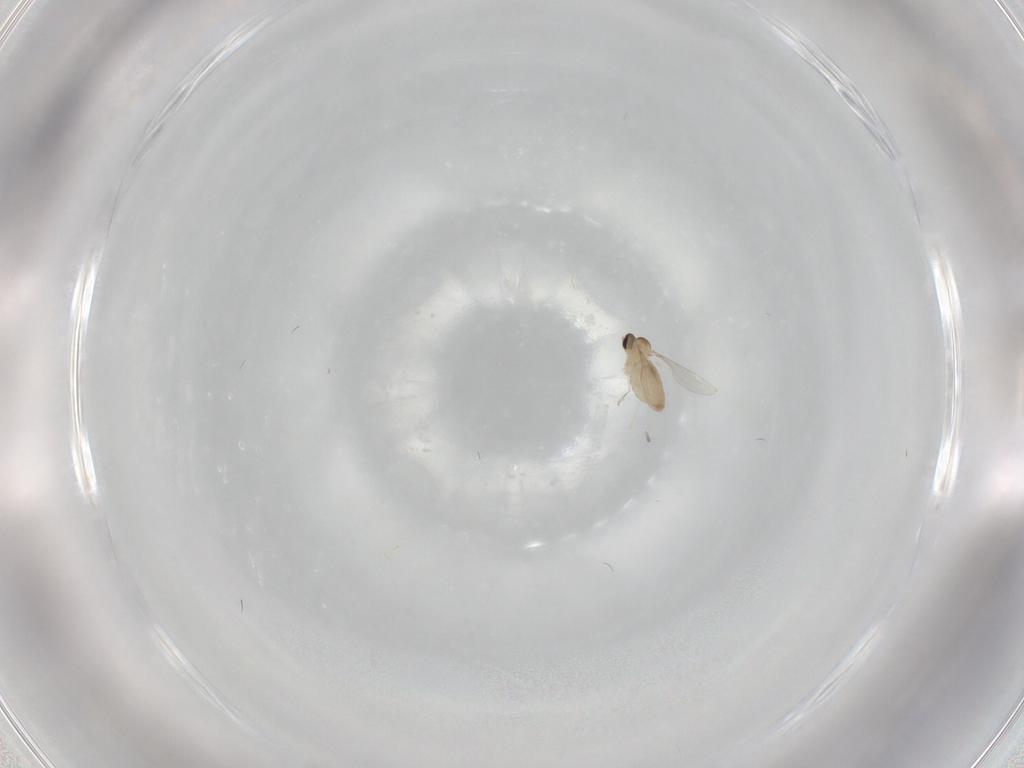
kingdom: Animalia
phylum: Arthropoda
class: Insecta
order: Diptera
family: Ephydridae
